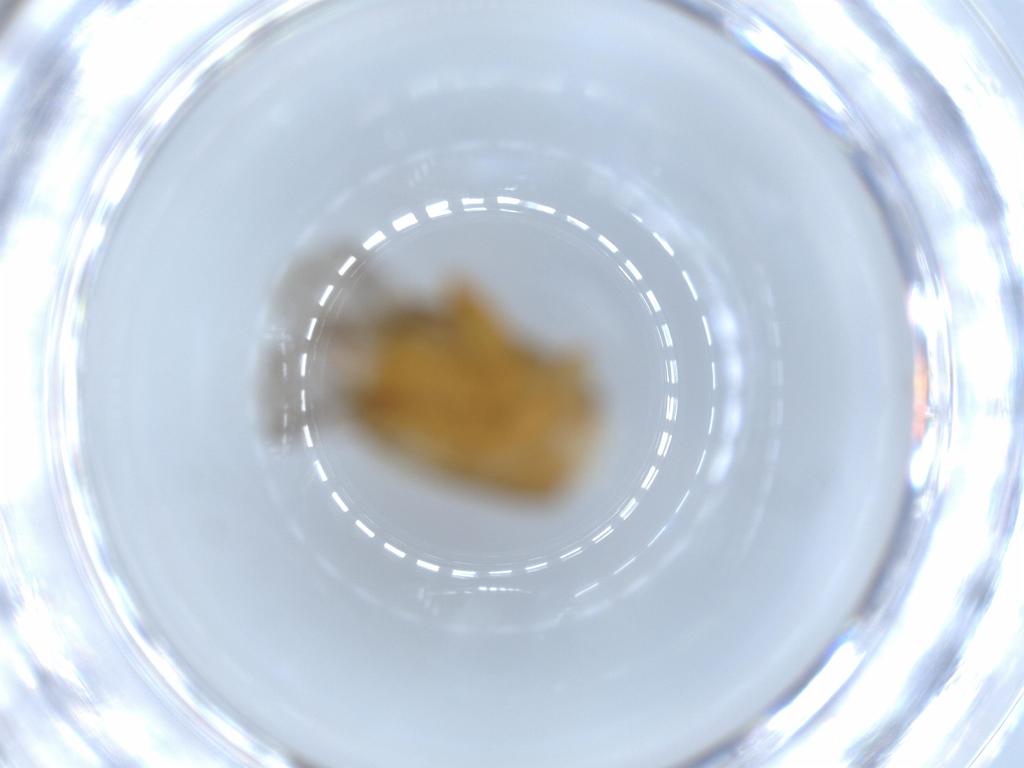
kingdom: Animalia
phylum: Arthropoda
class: Insecta
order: Coleoptera
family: Chrysomelidae
